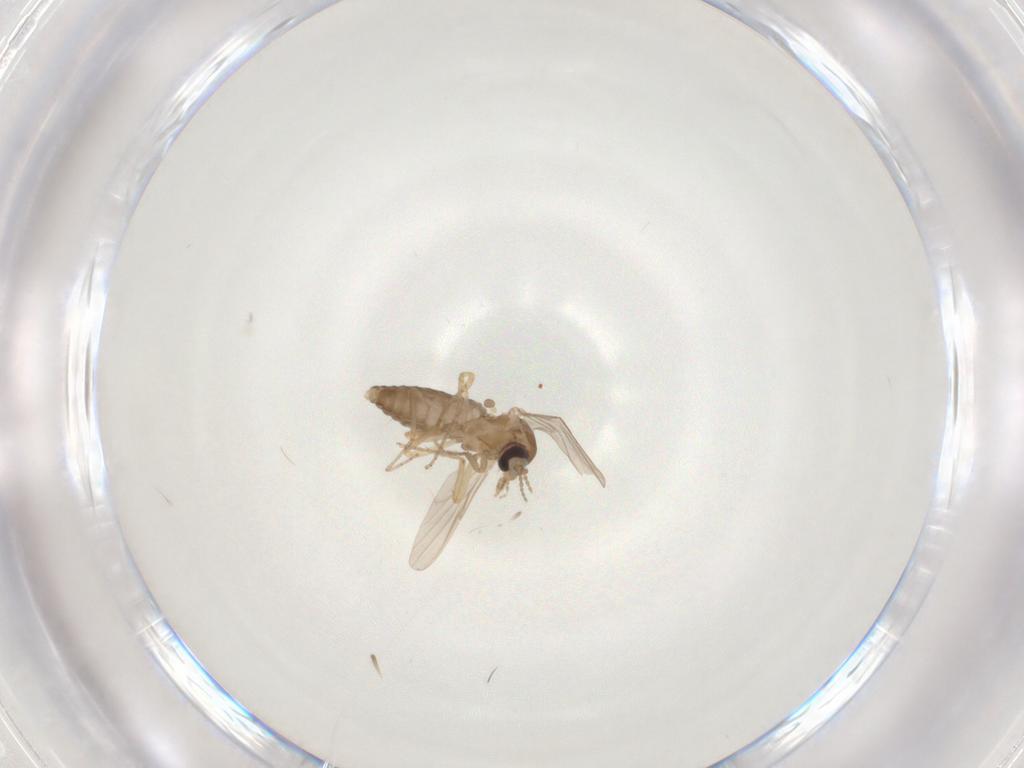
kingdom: Animalia
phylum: Arthropoda
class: Insecta
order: Diptera
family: Ceratopogonidae
